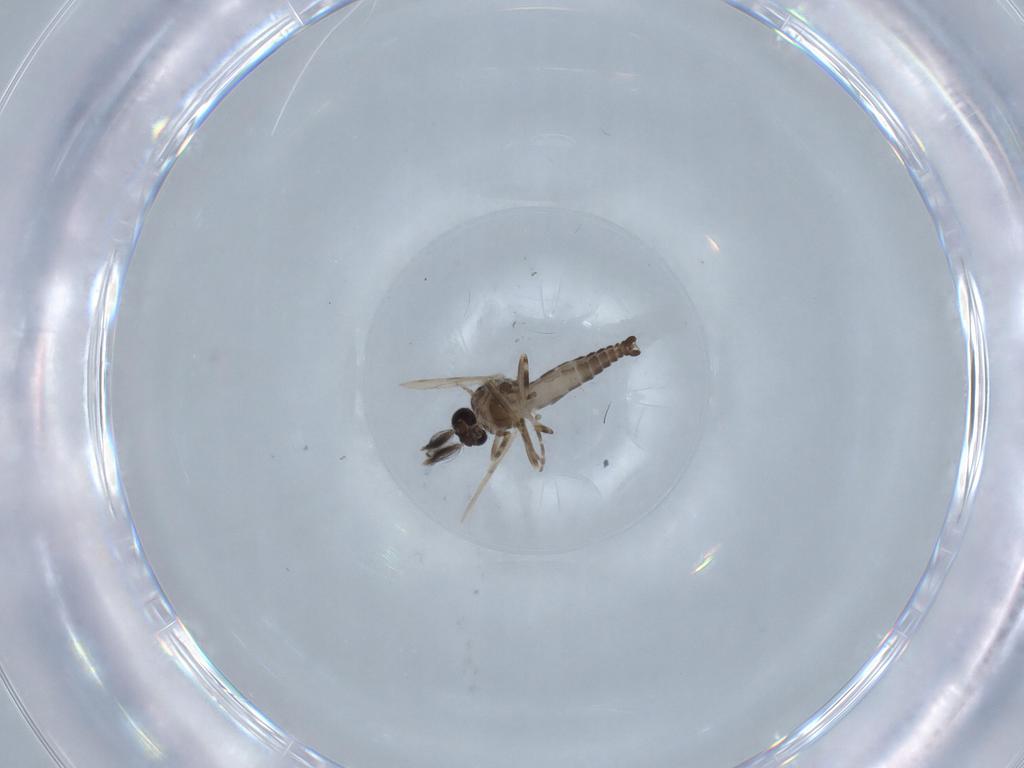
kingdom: Animalia
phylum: Arthropoda
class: Insecta
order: Diptera
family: Ceratopogonidae
